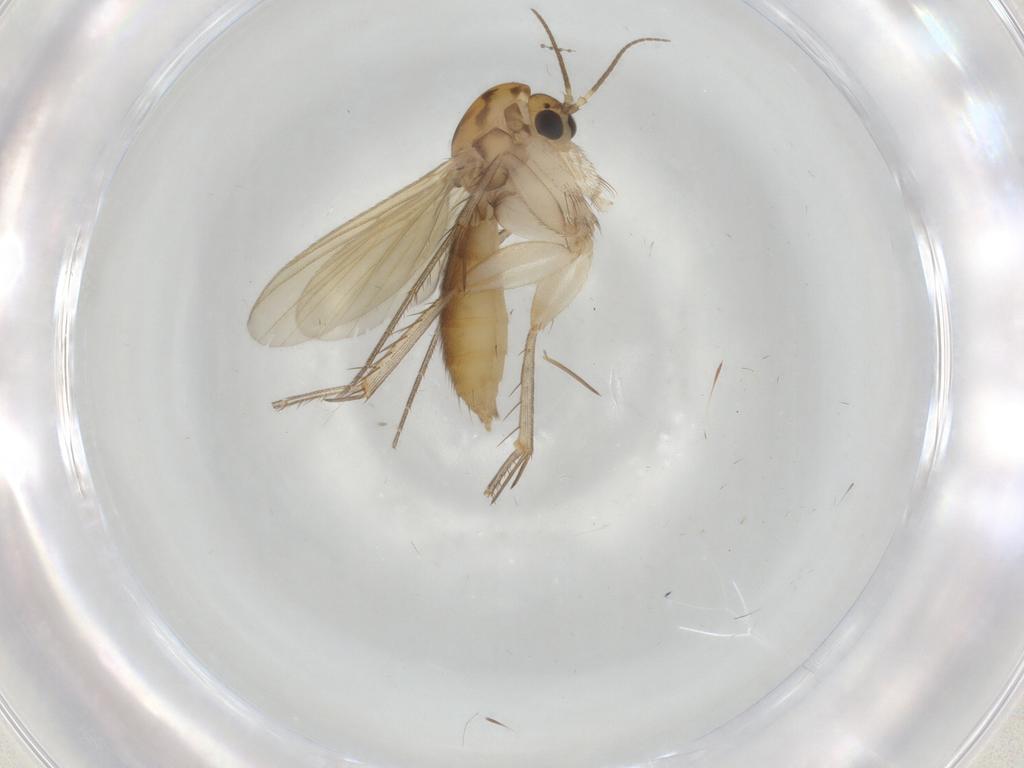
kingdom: Animalia
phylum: Arthropoda
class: Insecta
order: Diptera
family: Mycetophilidae
